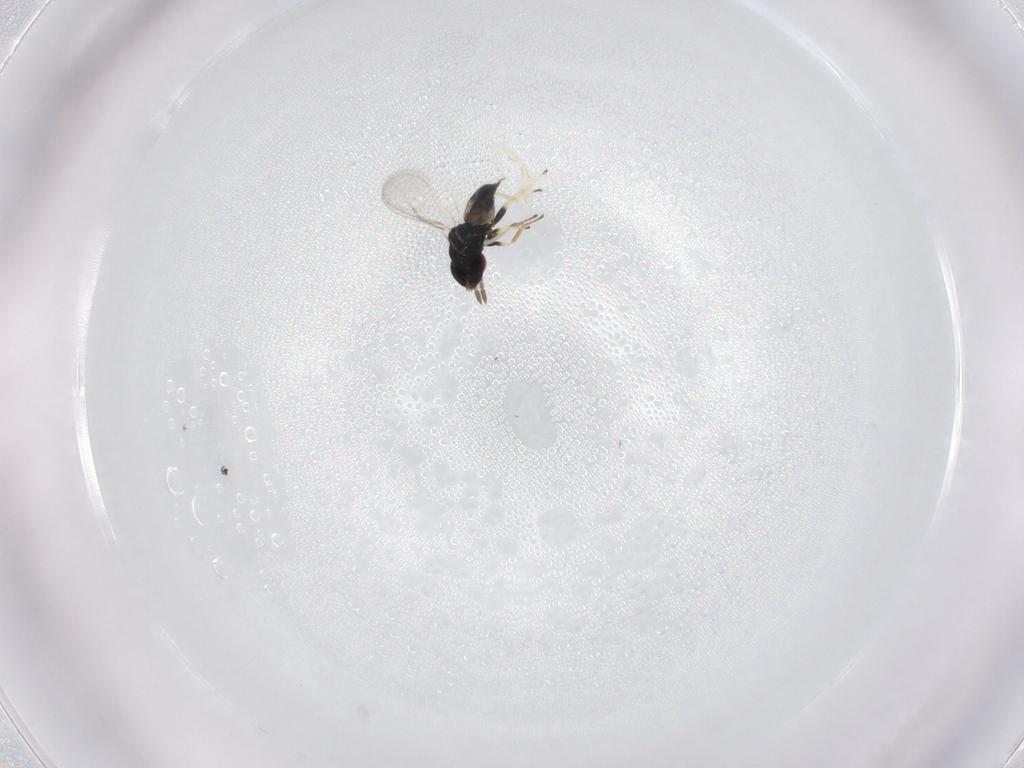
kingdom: Animalia
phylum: Arthropoda
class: Insecta
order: Hymenoptera
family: Eulophidae
